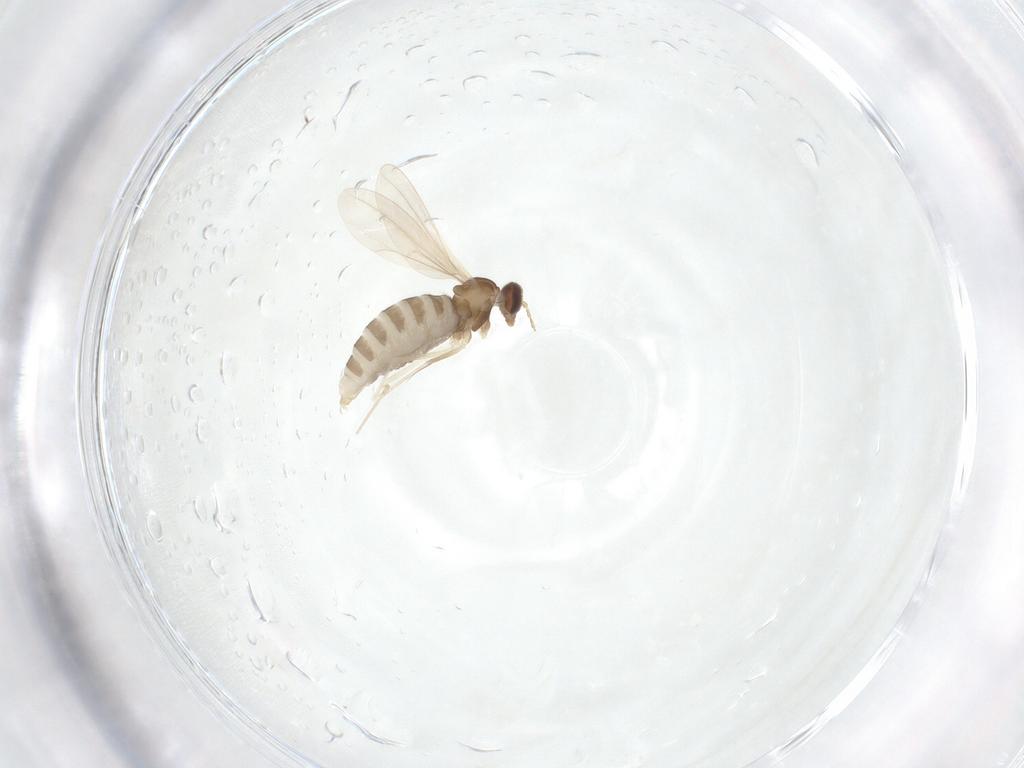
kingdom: Animalia
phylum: Arthropoda
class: Insecta
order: Diptera
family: Cecidomyiidae
